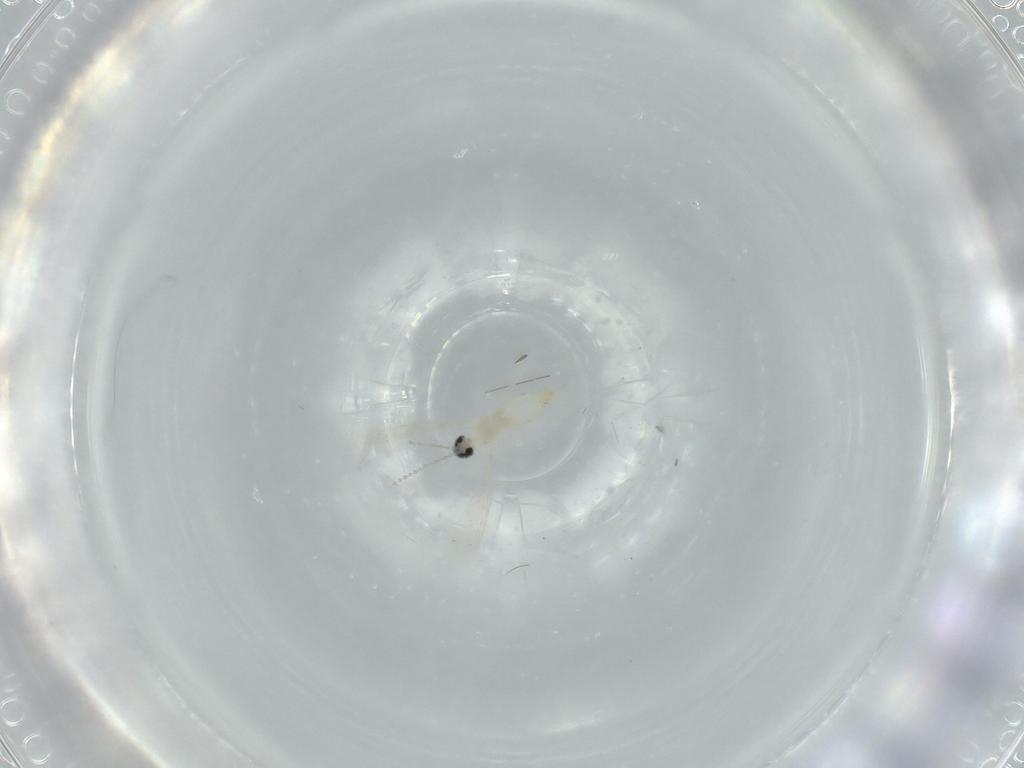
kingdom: Animalia
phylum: Arthropoda
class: Insecta
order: Diptera
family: Cecidomyiidae
